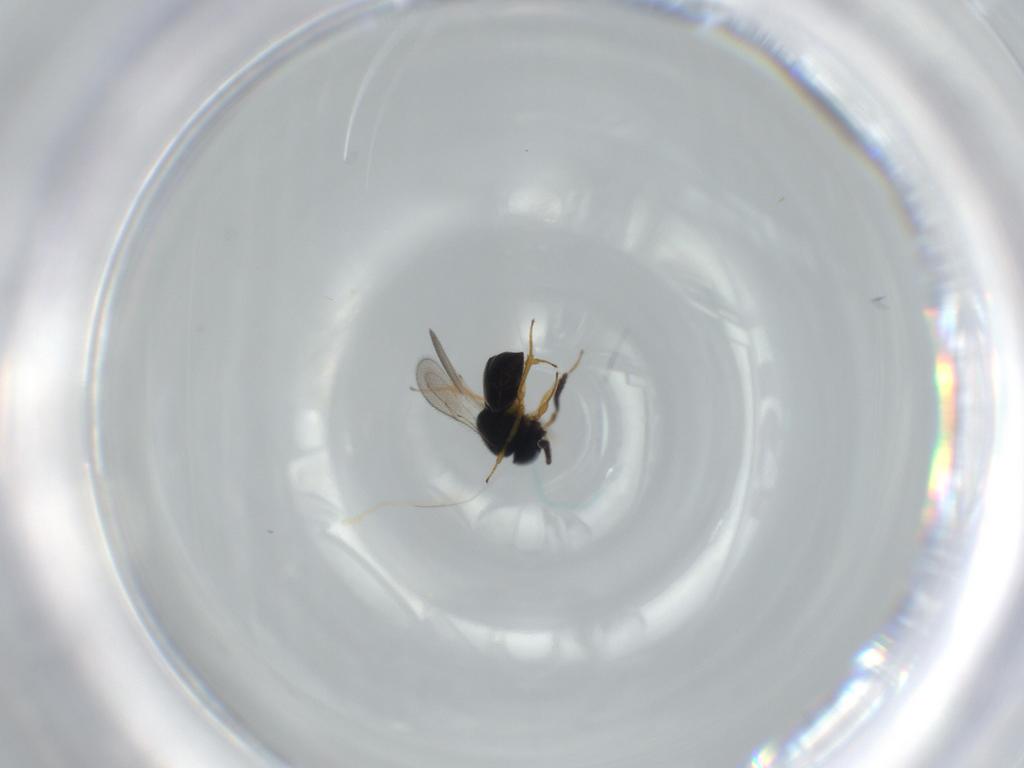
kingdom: Animalia
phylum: Arthropoda
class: Insecta
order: Hymenoptera
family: Scelionidae
